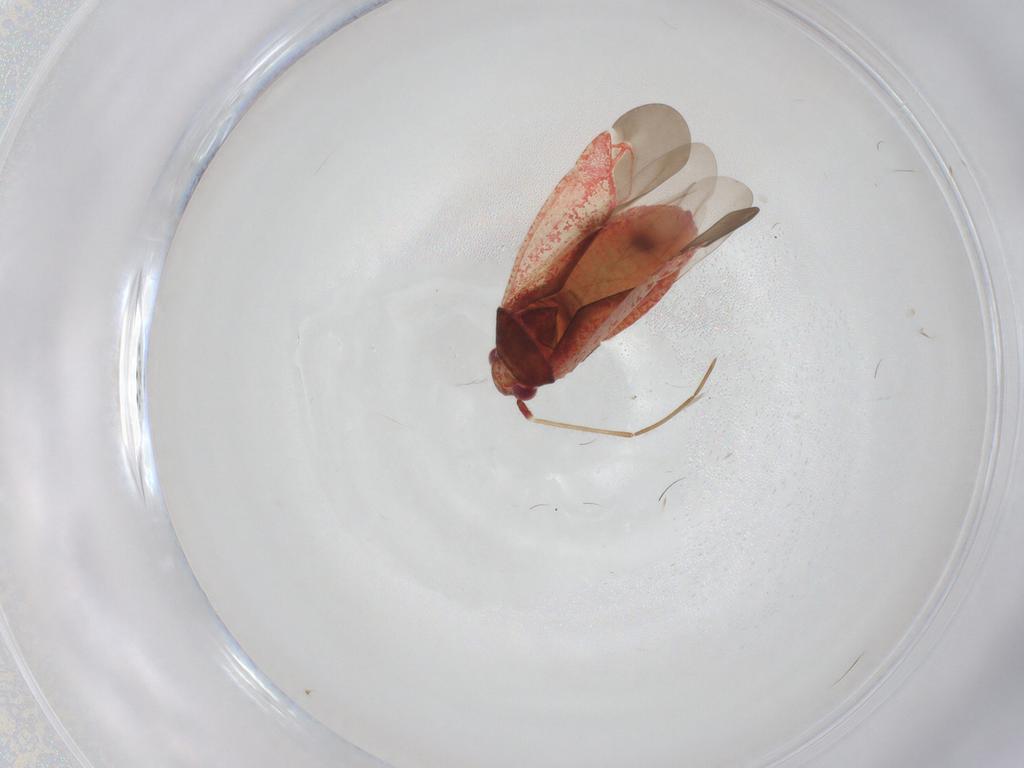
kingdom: Animalia
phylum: Arthropoda
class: Insecta
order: Hemiptera
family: Miridae
